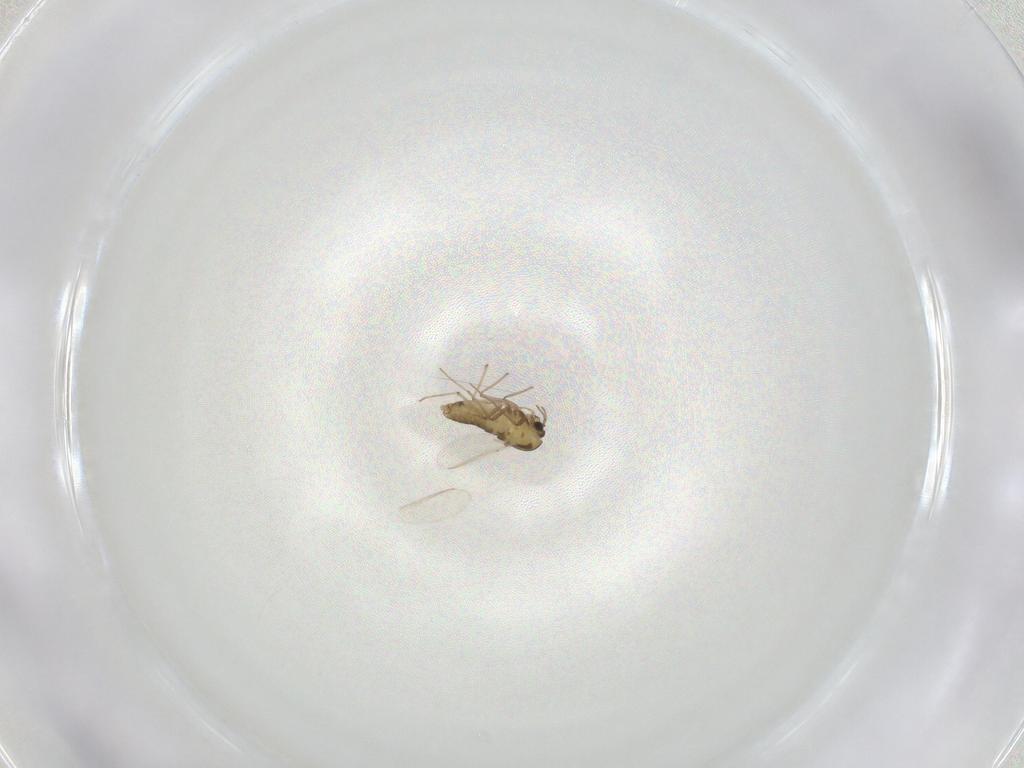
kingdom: Animalia
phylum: Arthropoda
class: Insecta
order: Diptera
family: Chironomidae
